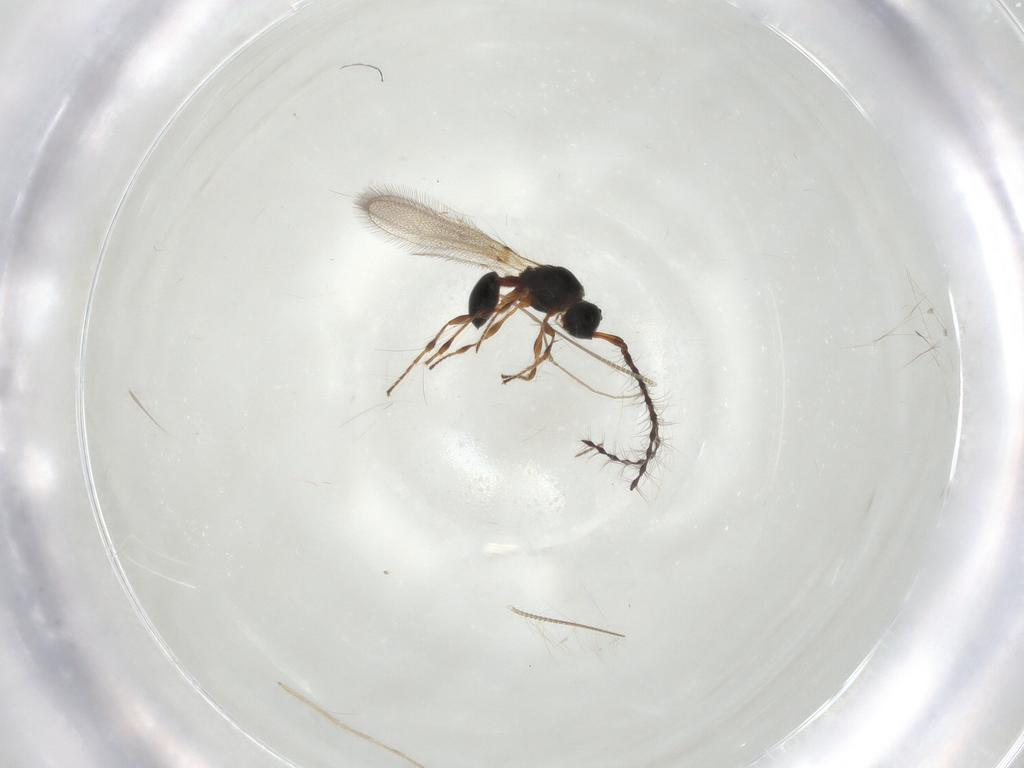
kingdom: Animalia
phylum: Arthropoda
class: Insecta
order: Hymenoptera
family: Diapriidae
